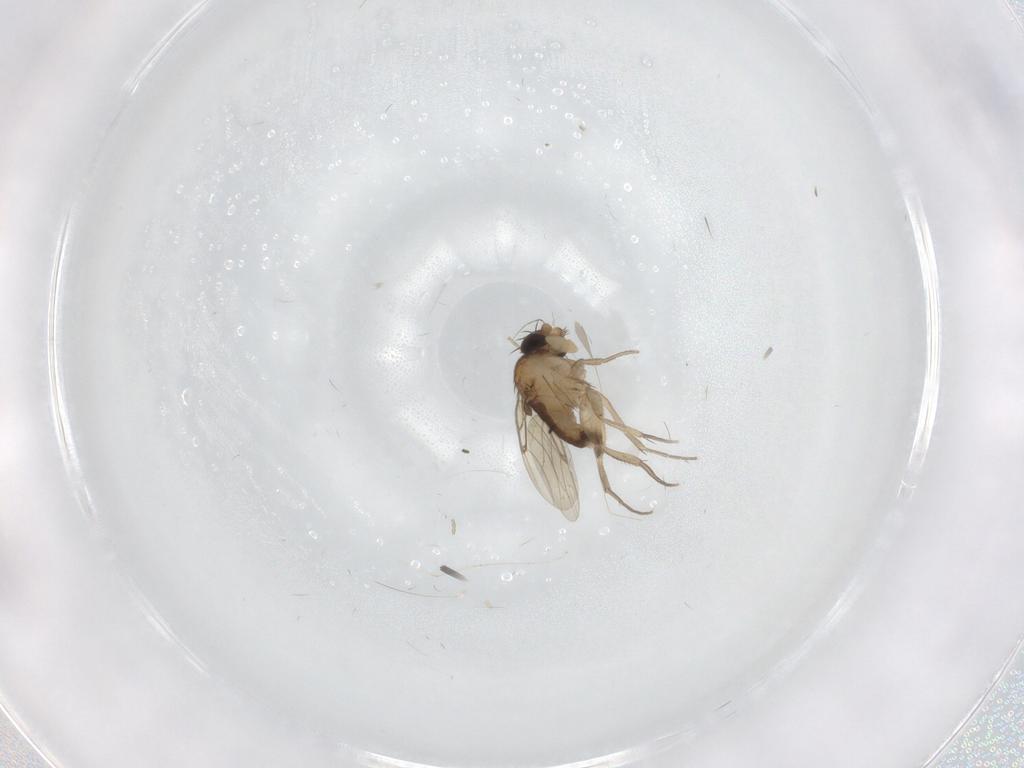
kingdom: Animalia
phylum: Arthropoda
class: Insecta
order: Diptera
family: Phoridae
